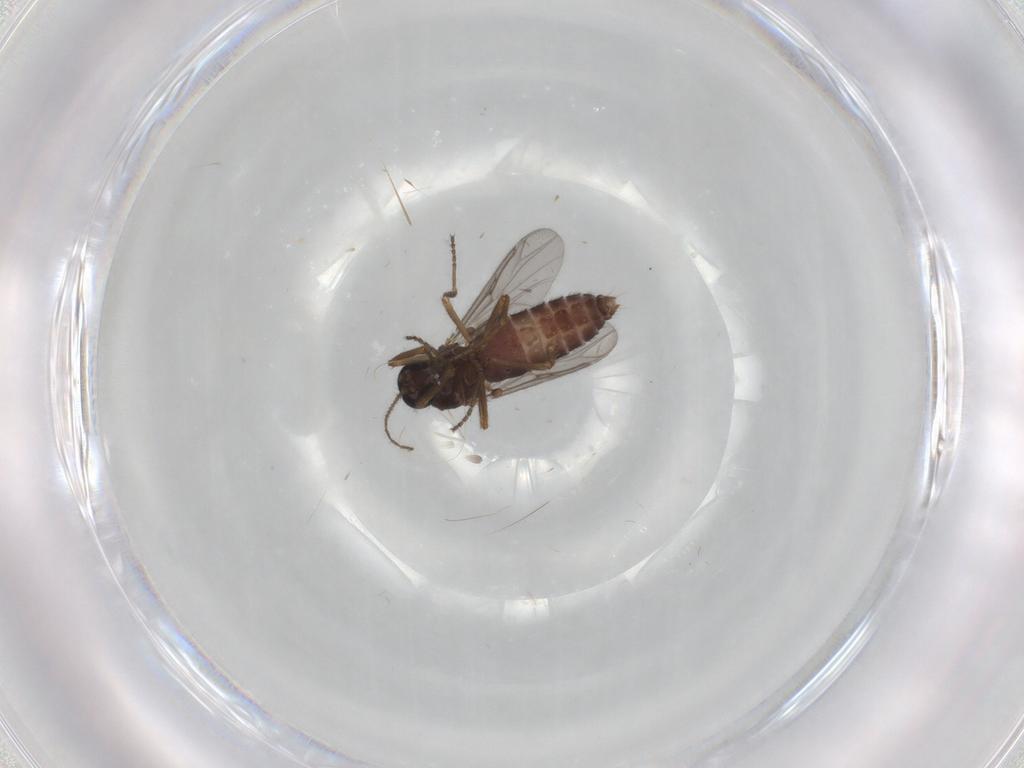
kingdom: Animalia
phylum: Arthropoda
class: Insecta
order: Diptera
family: Ceratopogonidae
